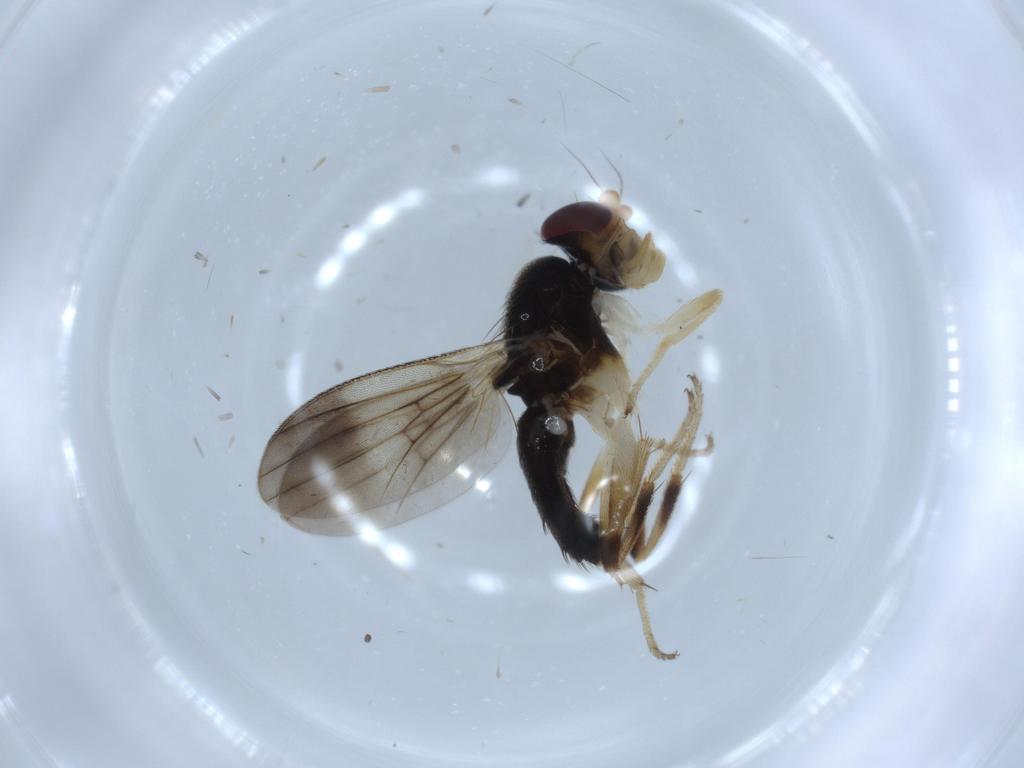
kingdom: Animalia
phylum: Arthropoda
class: Insecta
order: Diptera
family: Clusiidae
